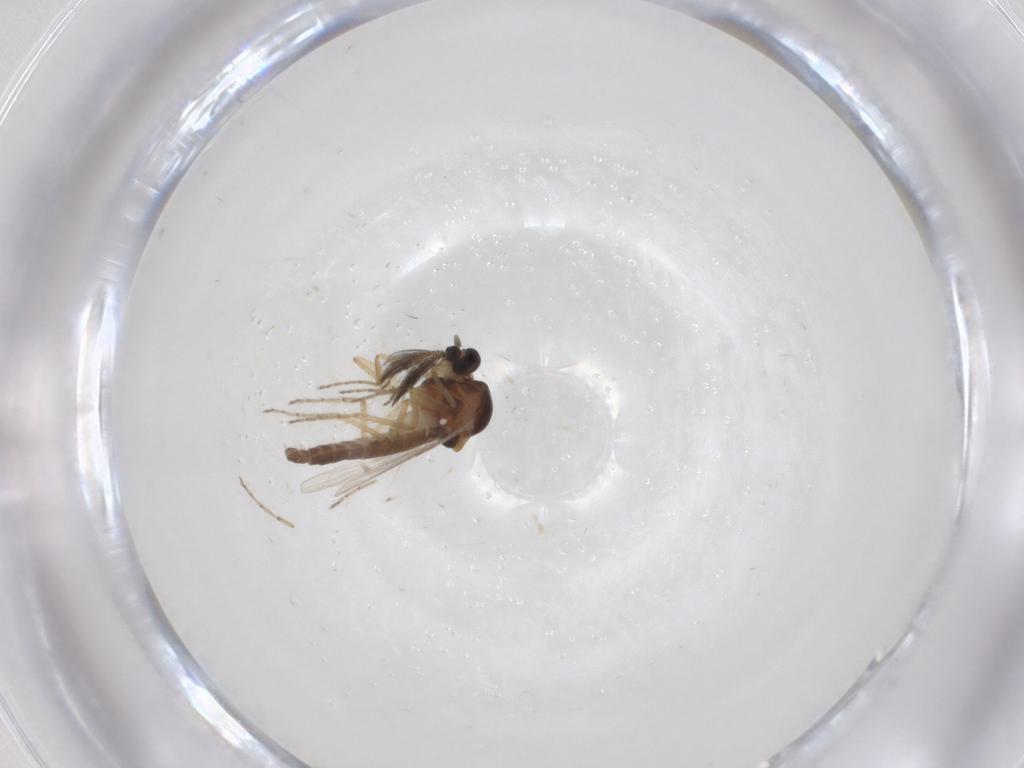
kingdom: Animalia
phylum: Arthropoda
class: Insecta
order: Diptera
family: Ceratopogonidae
